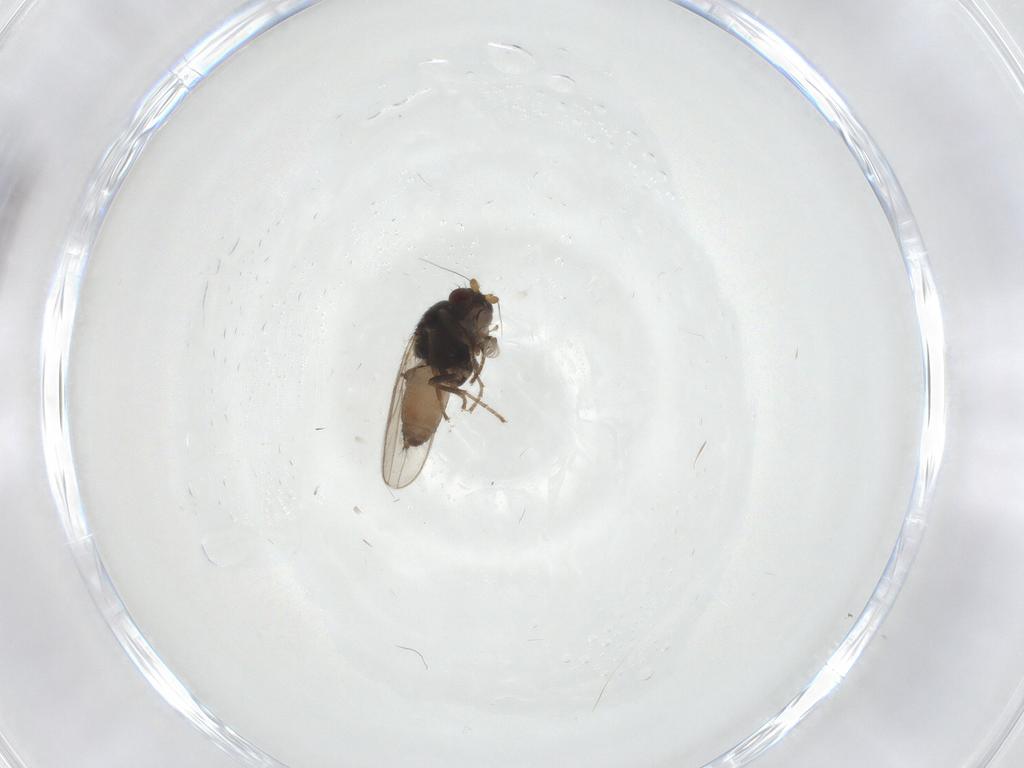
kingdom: Animalia
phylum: Arthropoda
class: Insecta
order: Diptera
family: Sphaeroceridae
